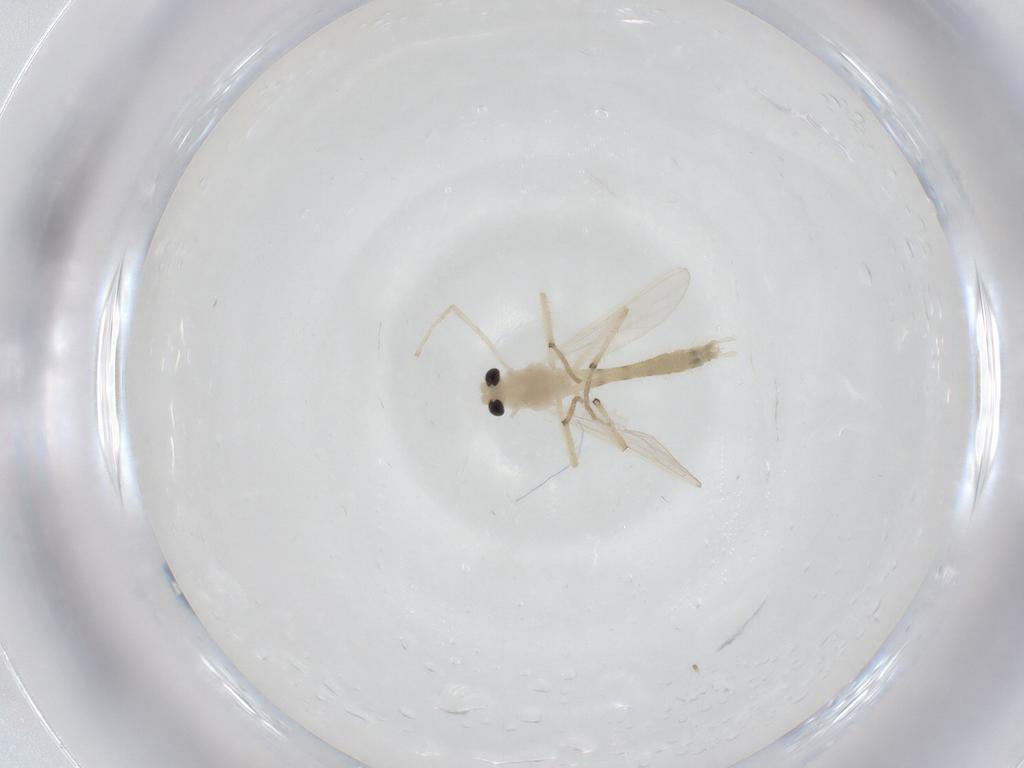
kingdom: Animalia
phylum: Arthropoda
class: Insecta
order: Diptera
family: Chironomidae
